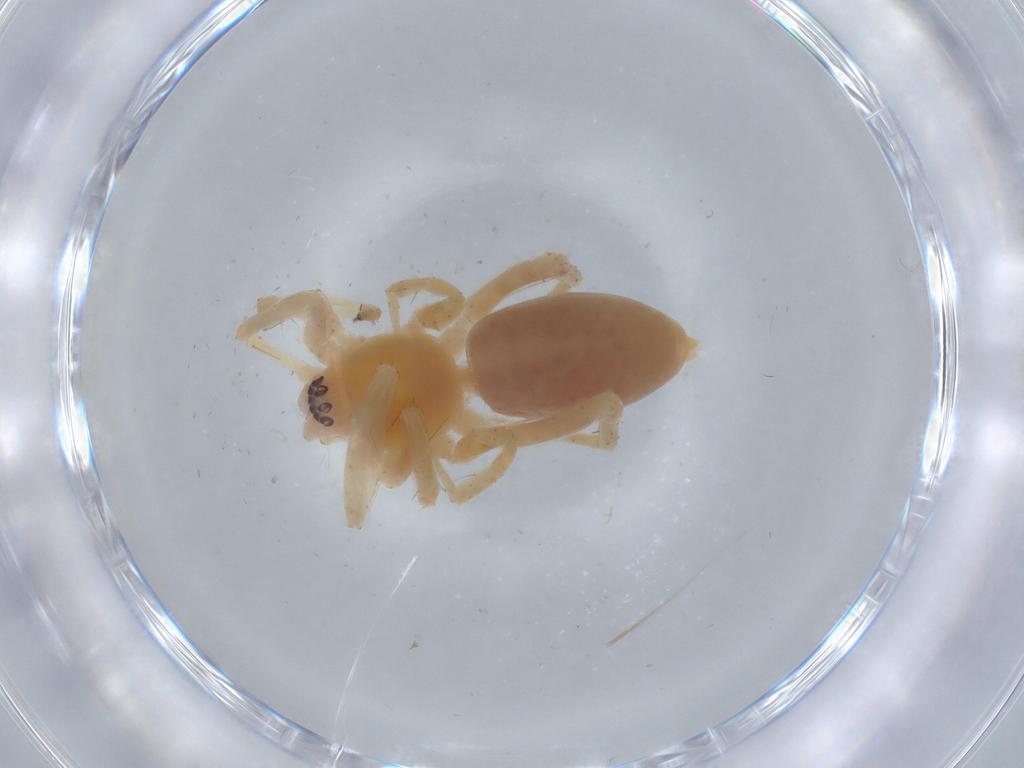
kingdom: Animalia
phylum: Arthropoda
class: Arachnida
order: Araneae
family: Anyphaenidae
